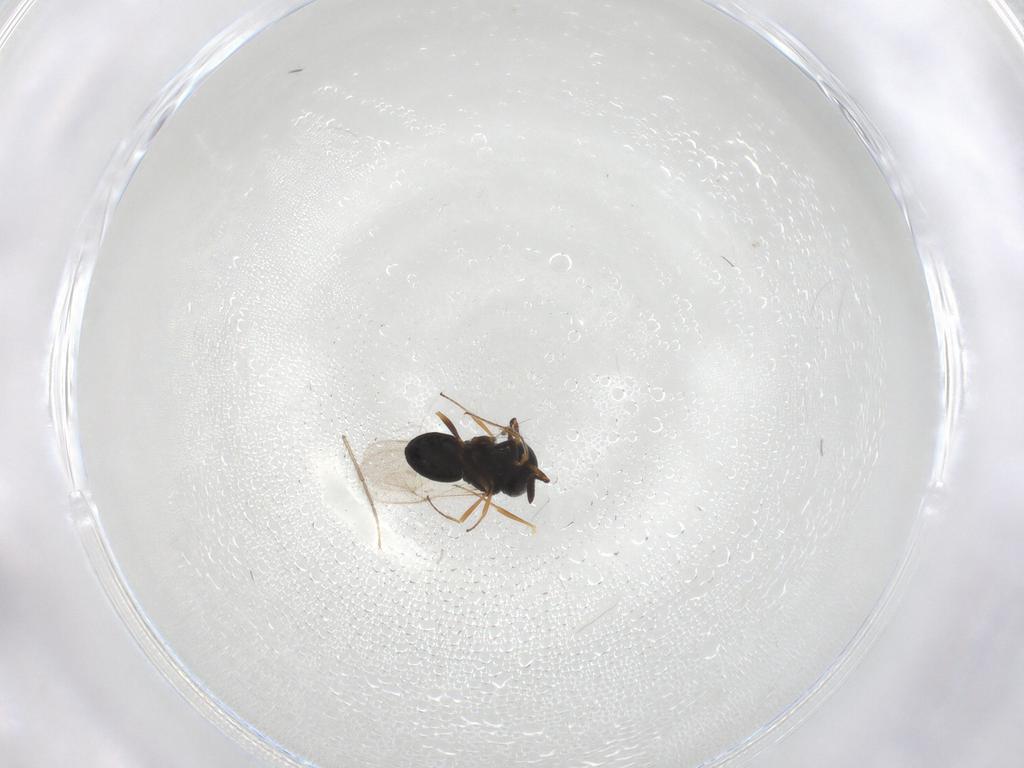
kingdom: Animalia
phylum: Arthropoda
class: Insecta
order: Hymenoptera
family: Scelionidae
